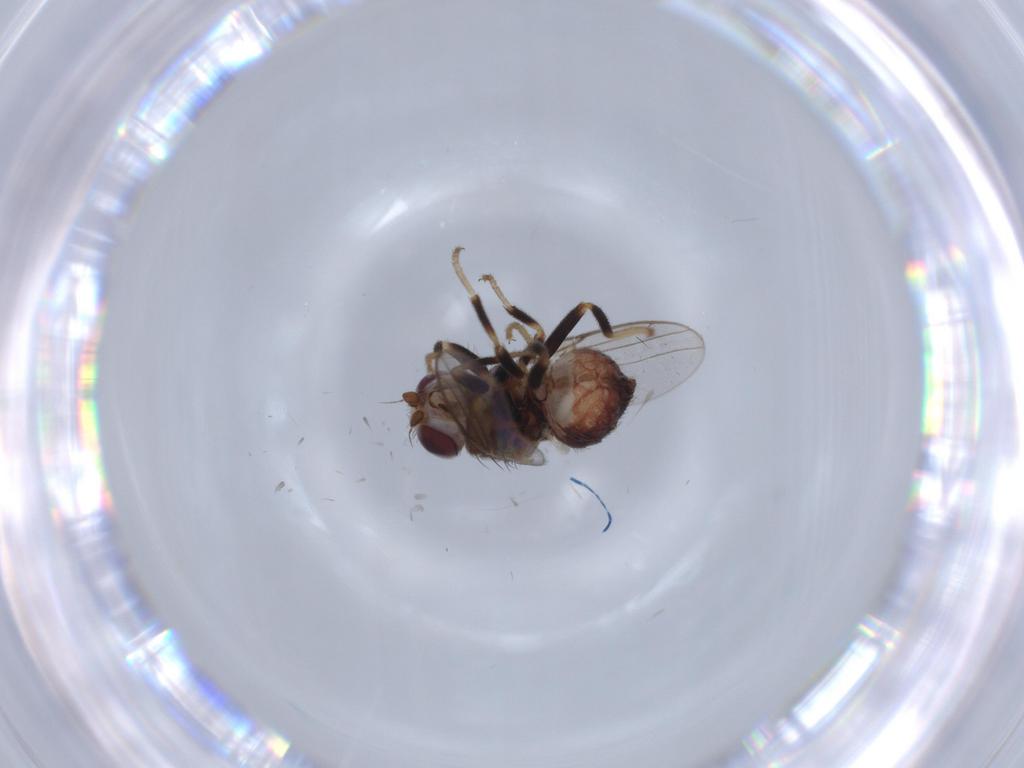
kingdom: Animalia
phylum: Arthropoda
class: Insecta
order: Diptera
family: Chloropidae
